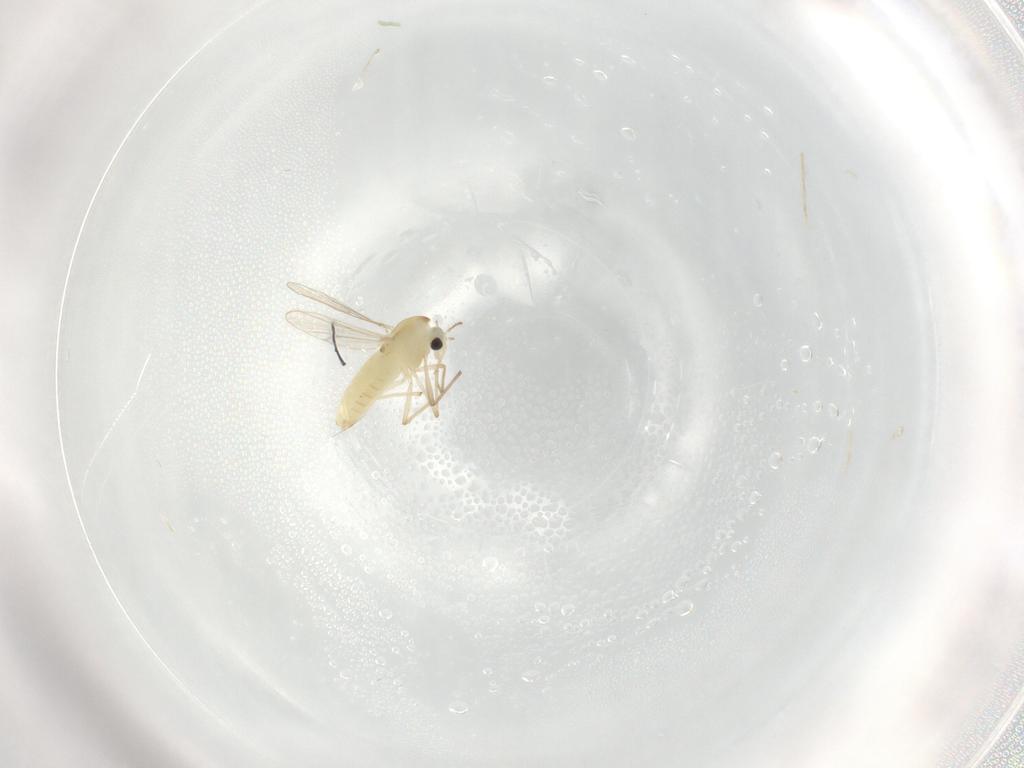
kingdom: Animalia
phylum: Arthropoda
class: Insecta
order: Diptera
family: Chironomidae
